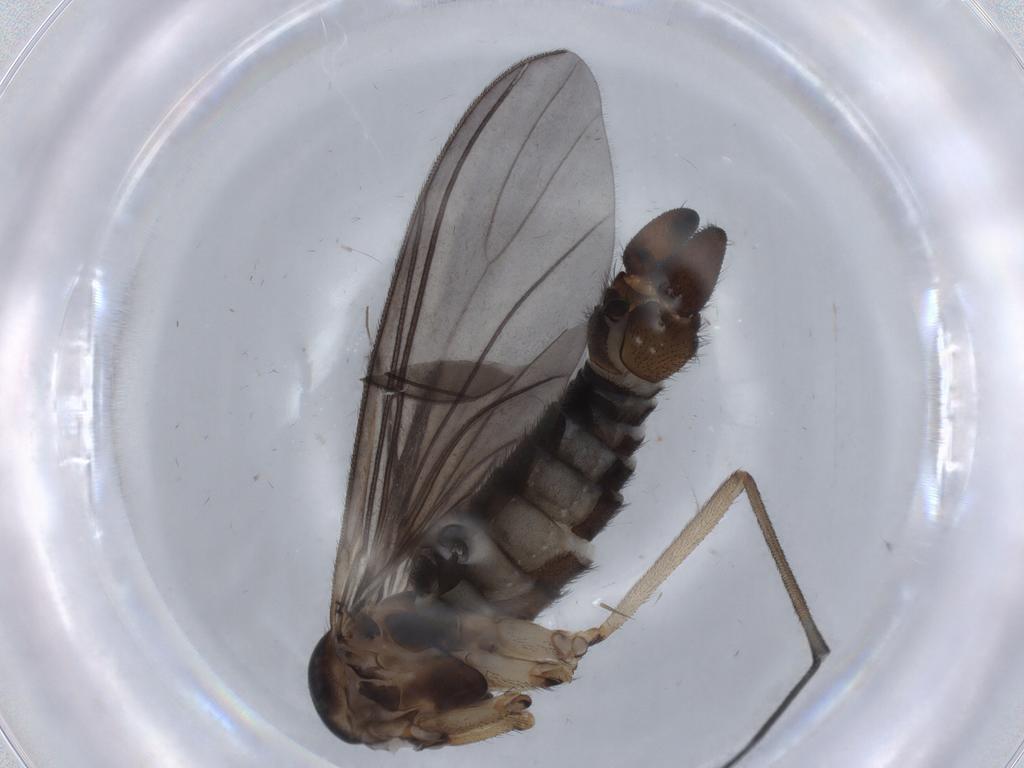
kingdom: Animalia
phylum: Arthropoda
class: Insecta
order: Diptera
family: Sciaridae
